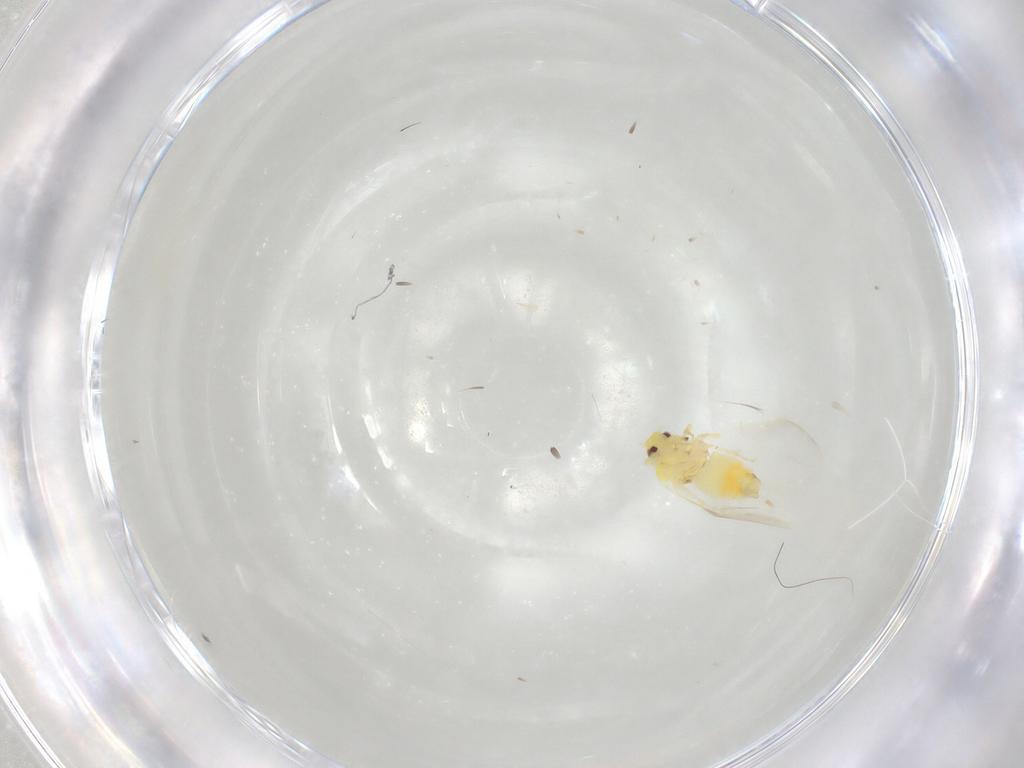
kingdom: Animalia
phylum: Arthropoda
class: Insecta
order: Hemiptera
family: Aleyrodidae
